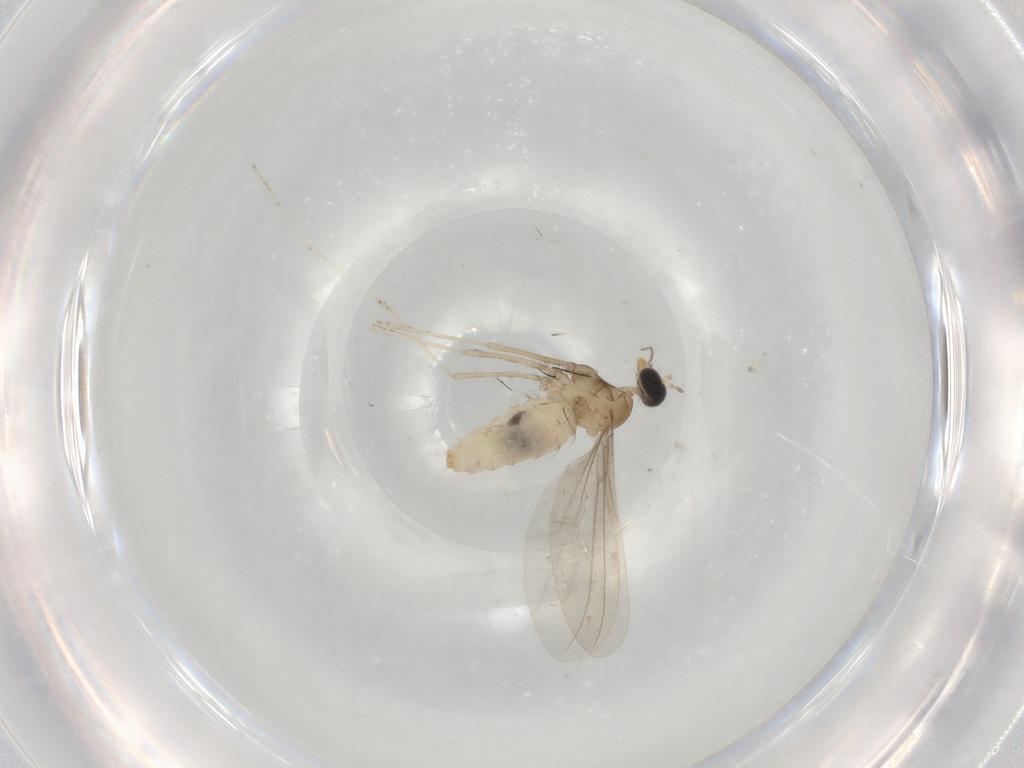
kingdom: Animalia
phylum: Arthropoda
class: Insecta
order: Diptera
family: Cecidomyiidae
